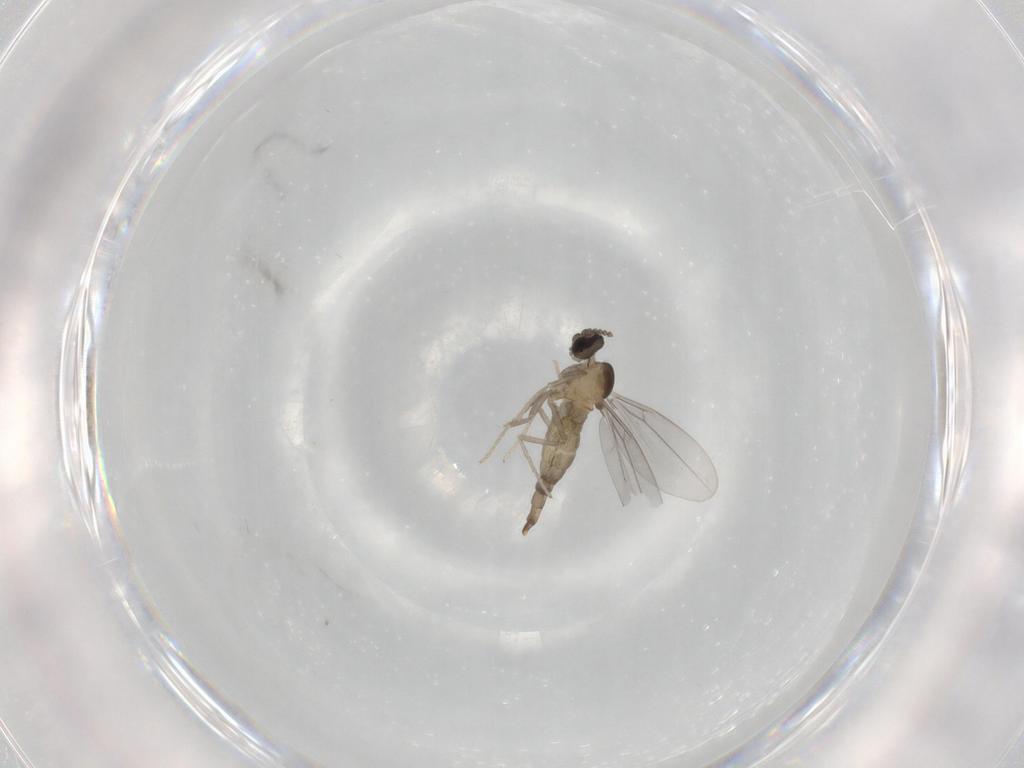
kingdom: Animalia
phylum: Arthropoda
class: Insecta
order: Diptera
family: Cecidomyiidae
